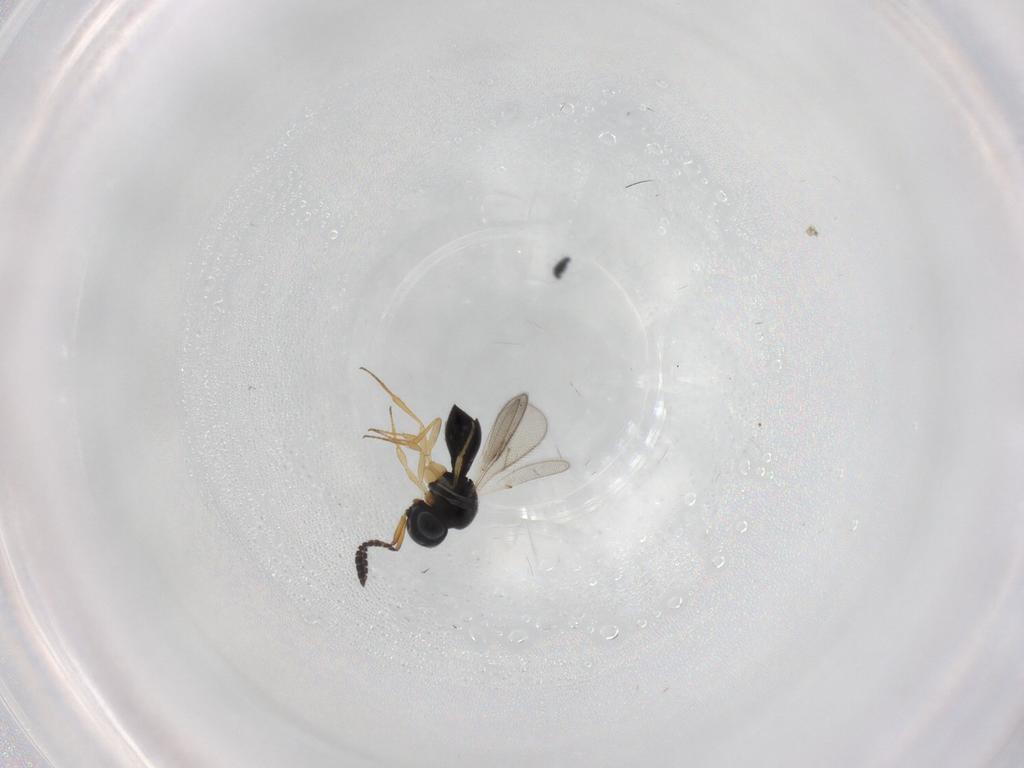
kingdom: Animalia
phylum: Arthropoda
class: Insecta
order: Hymenoptera
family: Scelionidae
